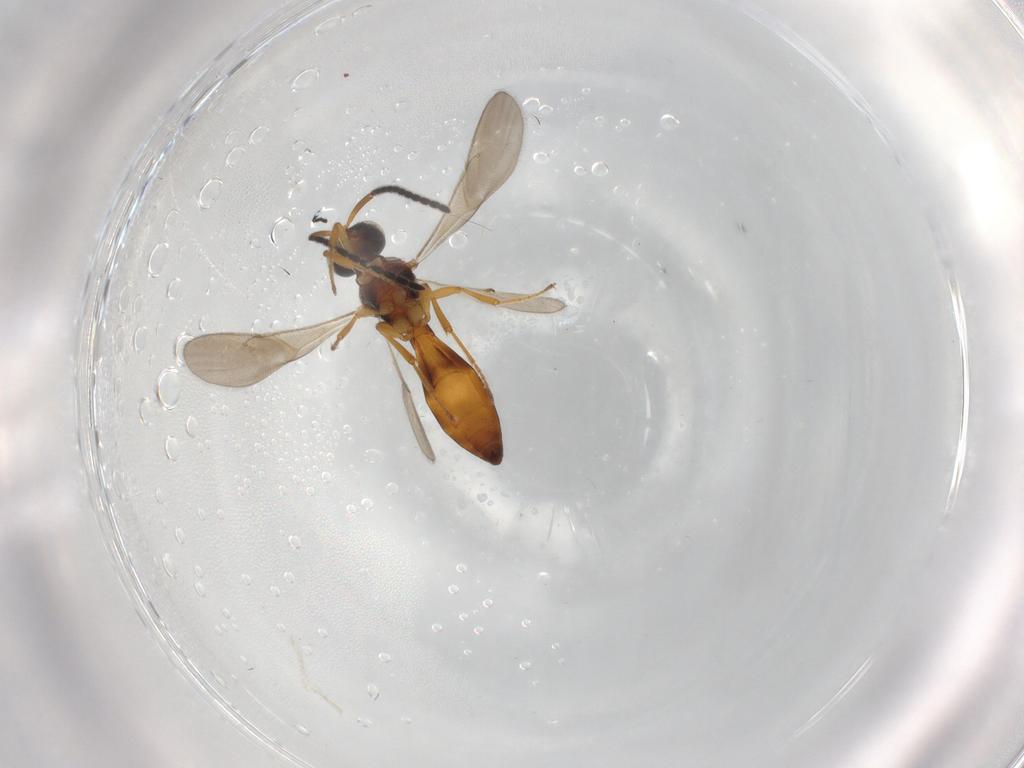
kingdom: Animalia
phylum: Arthropoda
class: Insecta
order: Hymenoptera
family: Scelionidae
